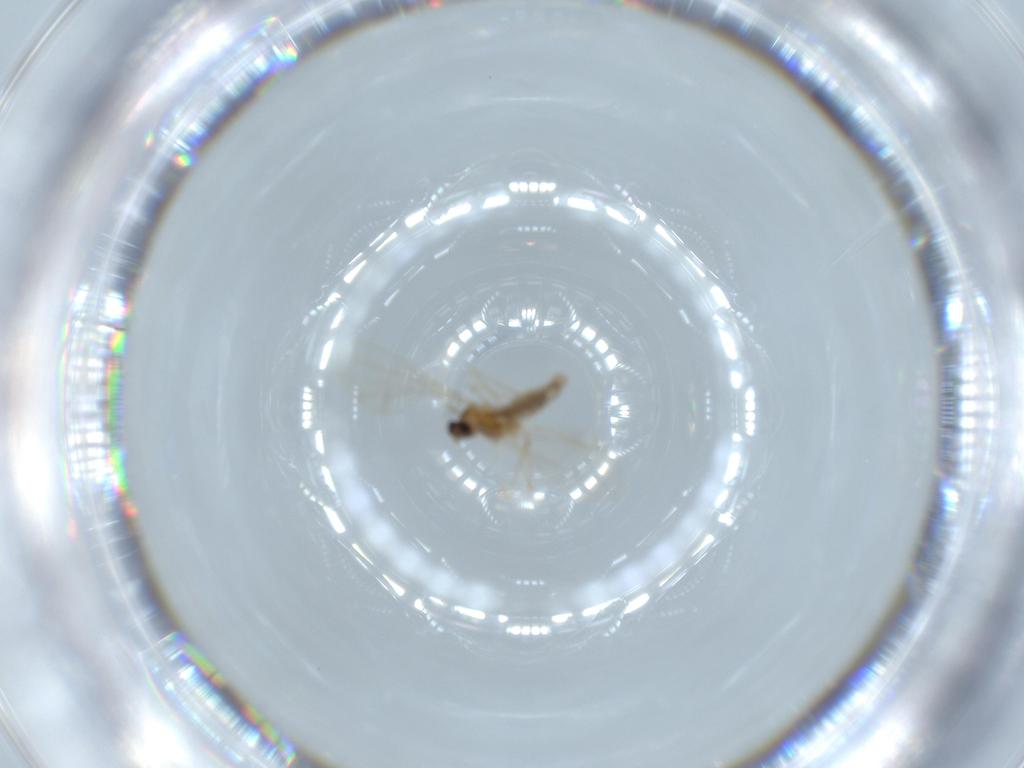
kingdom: Animalia
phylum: Arthropoda
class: Insecta
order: Diptera
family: Cecidomyiidae
